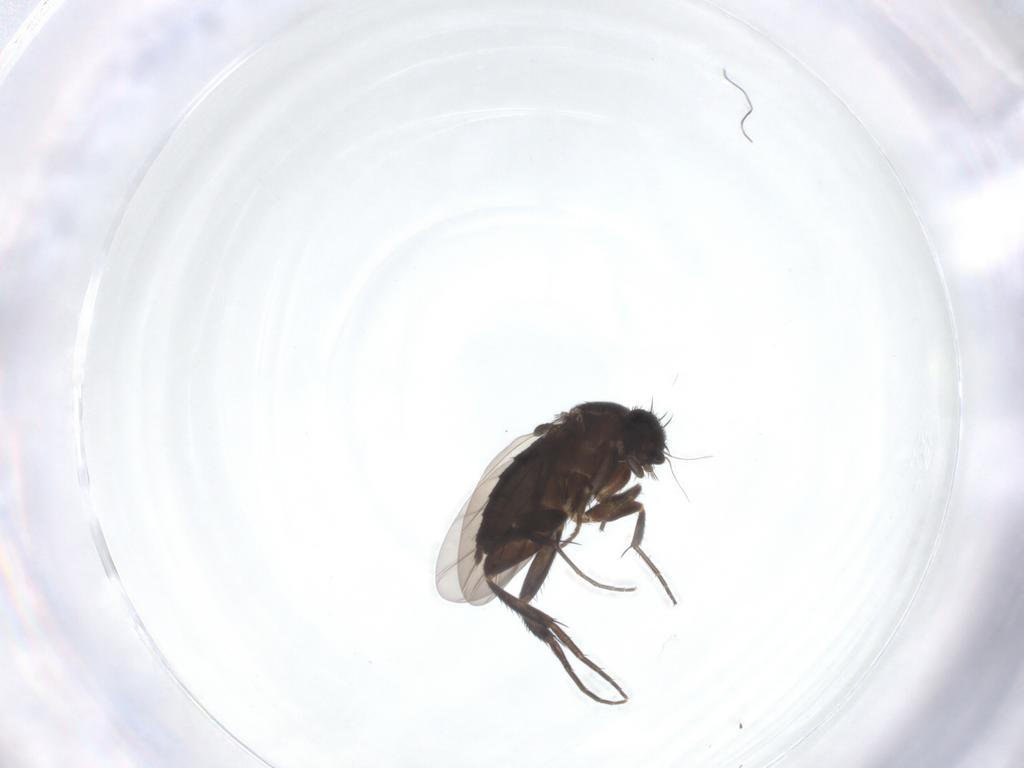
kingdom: Animalia
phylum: Arthropoda
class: Insecta
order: Diptera
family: Phoridae
